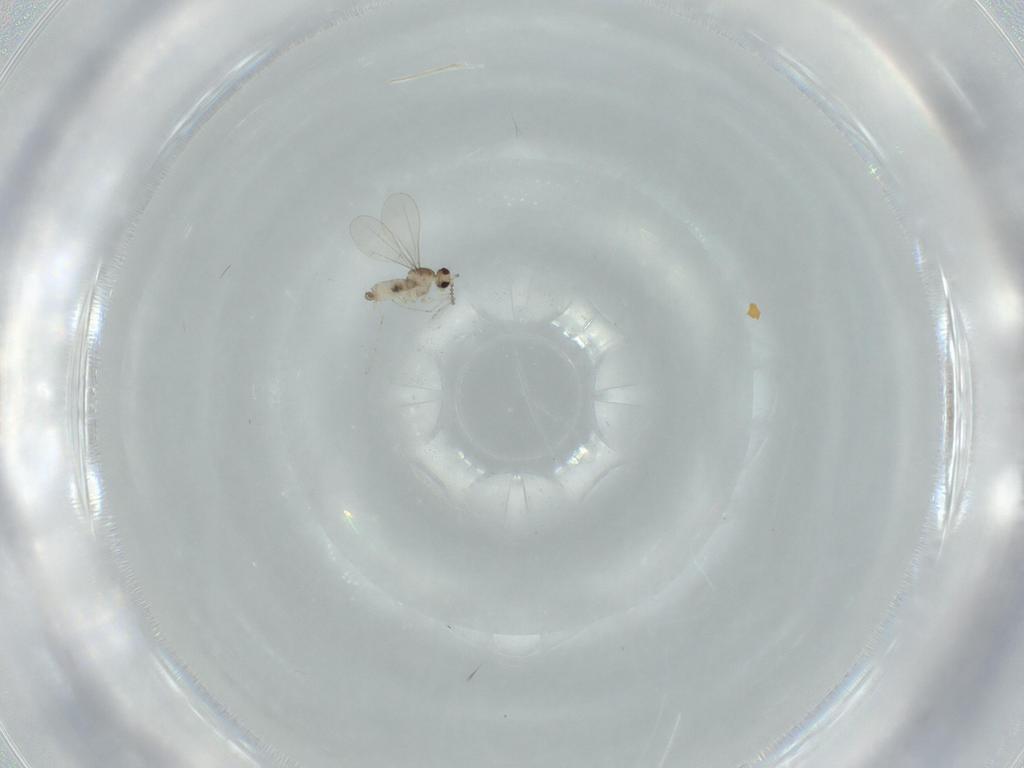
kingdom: Animalia
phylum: Arthropoda
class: Insecta
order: Diptera
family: Cecidomyiidae
